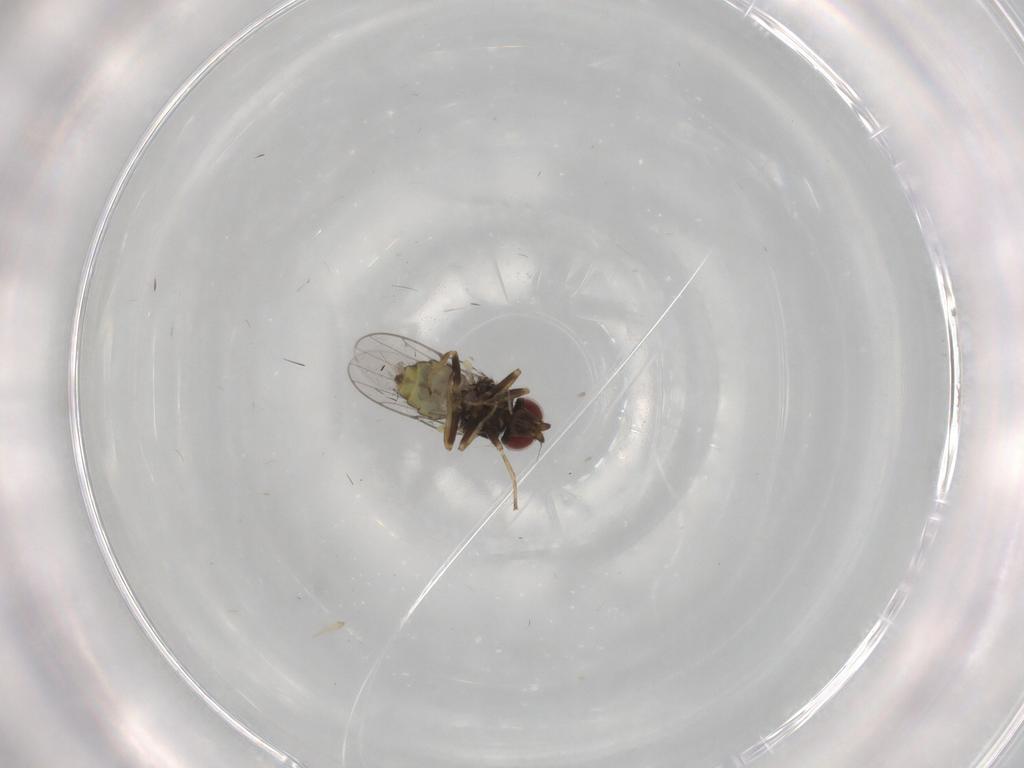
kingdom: Animalia
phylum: Arthropoda
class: Insecta
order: Diptera
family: Chloropidae
